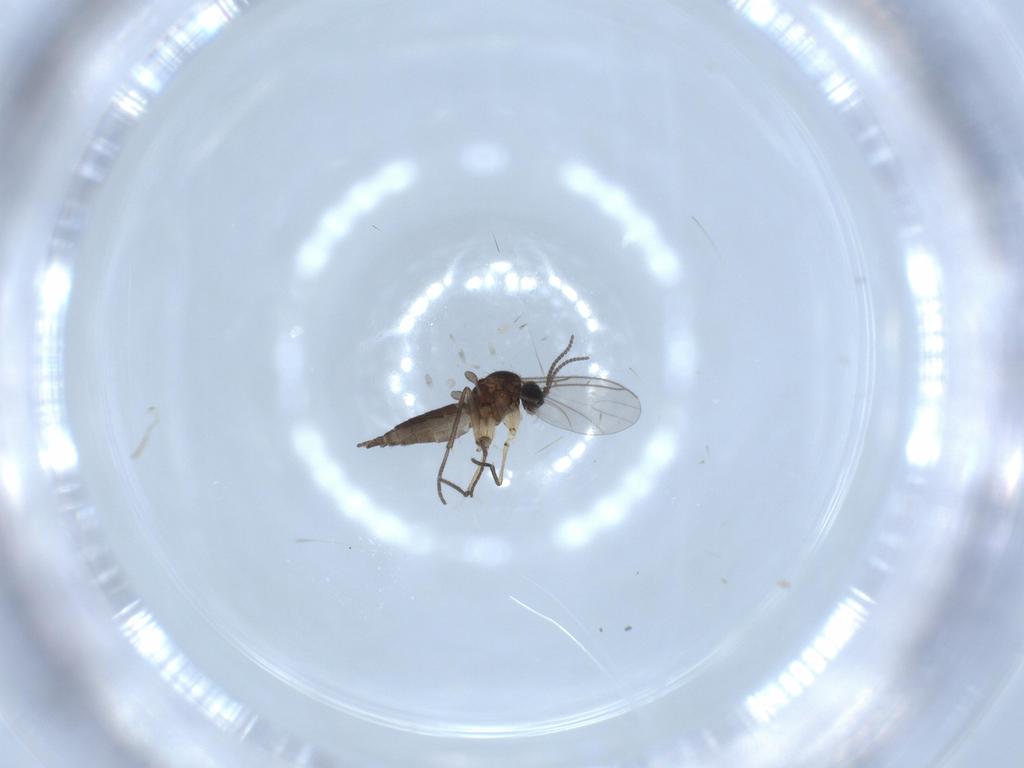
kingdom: Animalia
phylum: Arthropoda
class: Insecta
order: Diptera
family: Sciaridae
